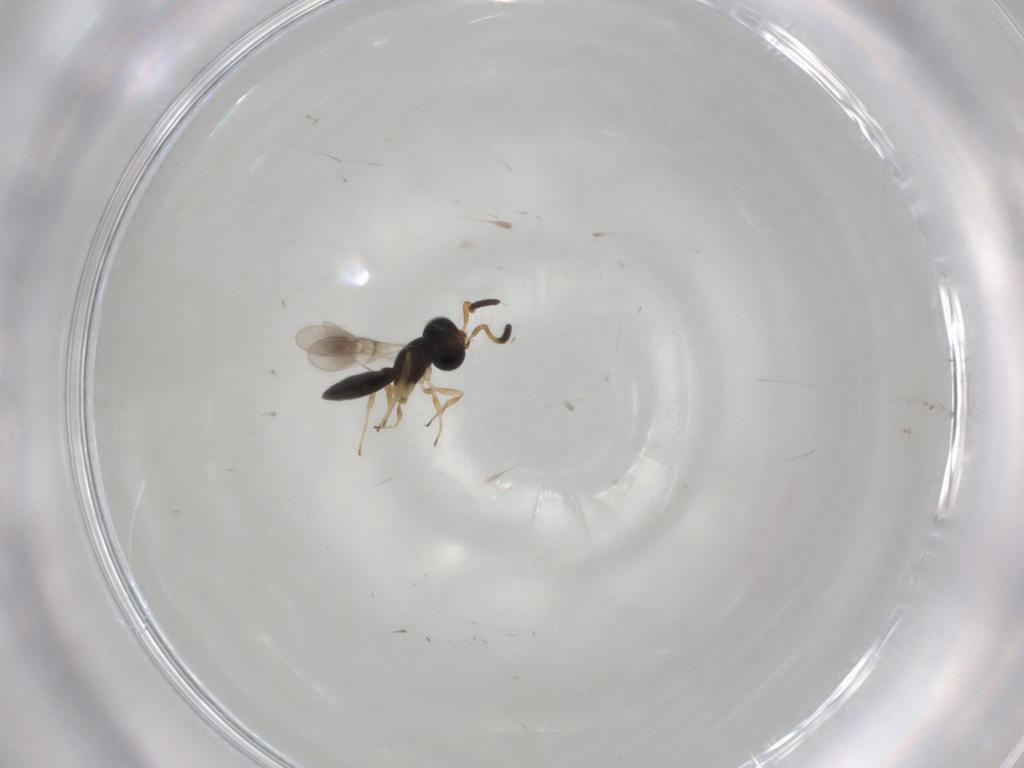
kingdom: Animalia
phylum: Arthropoda
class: Insecta
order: Hymenoptera
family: Scelionidae
